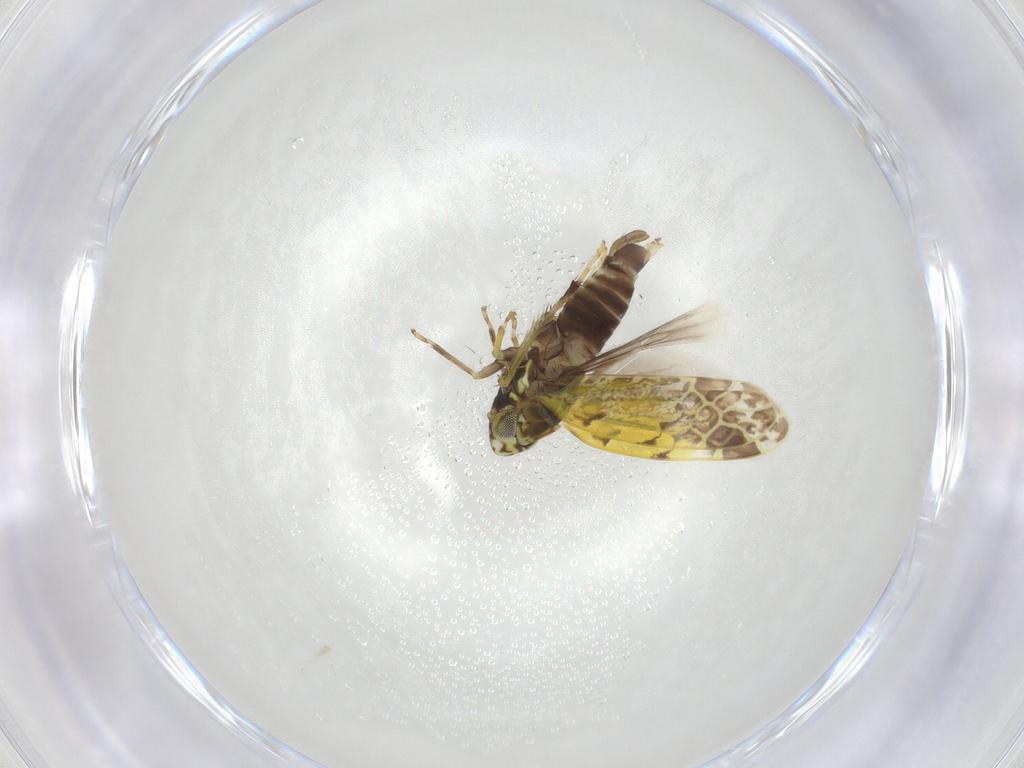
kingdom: Animalia
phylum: Arthropoda
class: Insecta
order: Hemiptera
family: Cicadellidae
